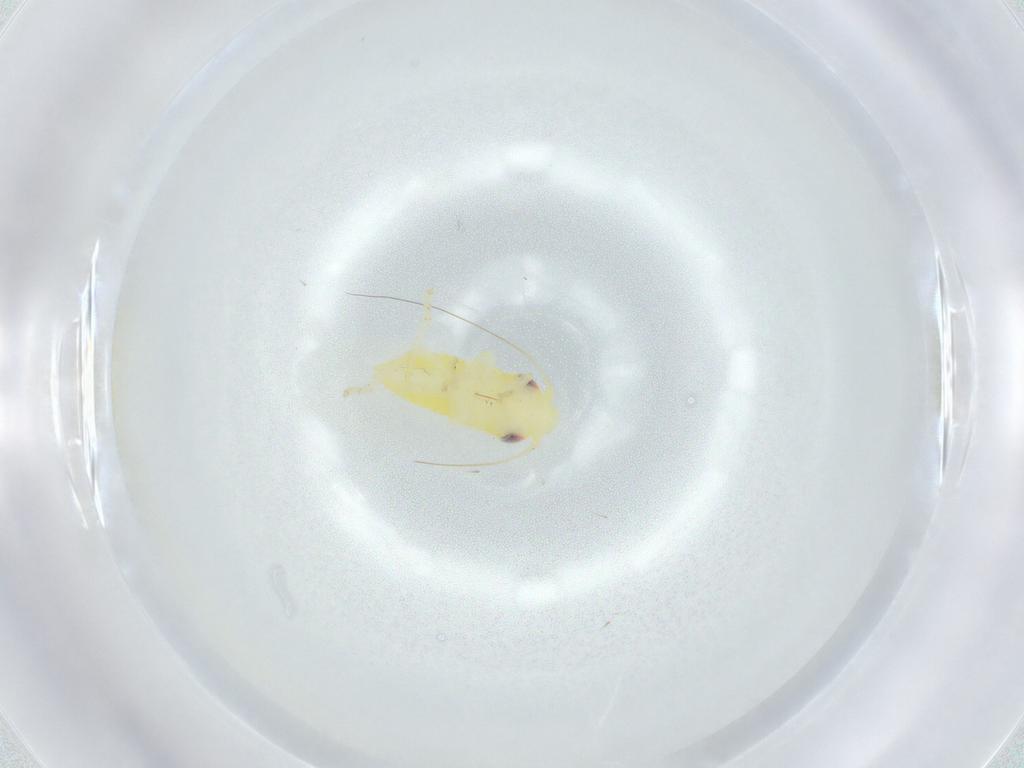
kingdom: Animalia
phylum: Arthropoda
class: Insecta
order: Hemiptera
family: Cicadellidae
